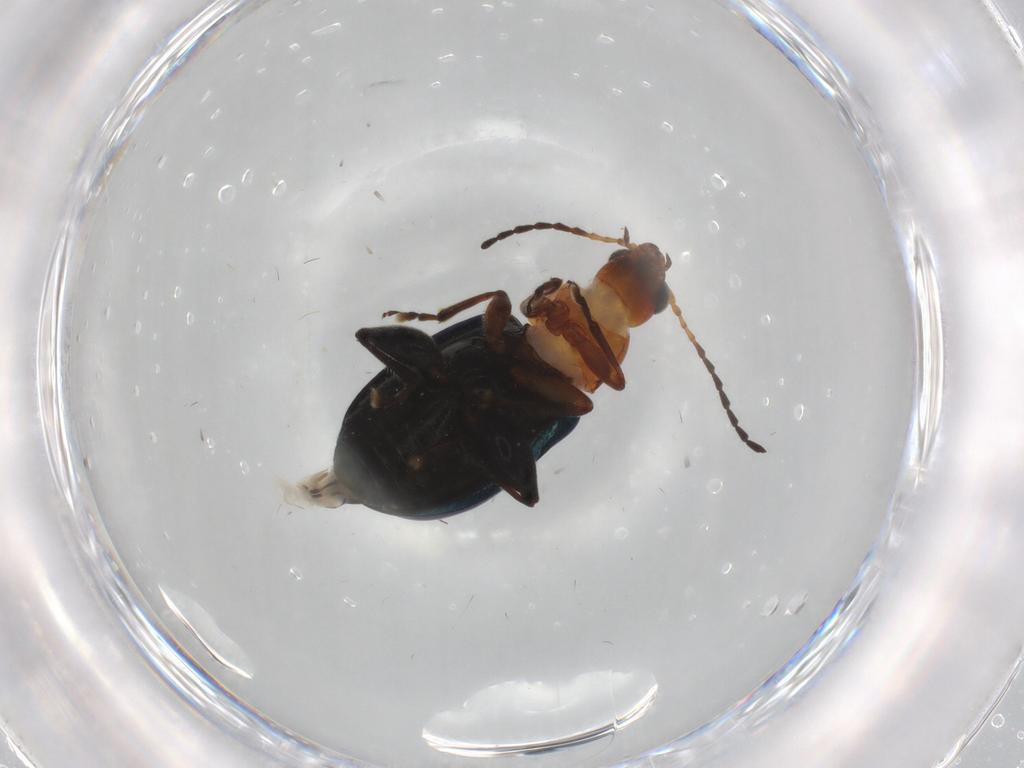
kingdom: Animalia
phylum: Arthropoda
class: Insecta
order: Coleoptera
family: Chrysomelidae
